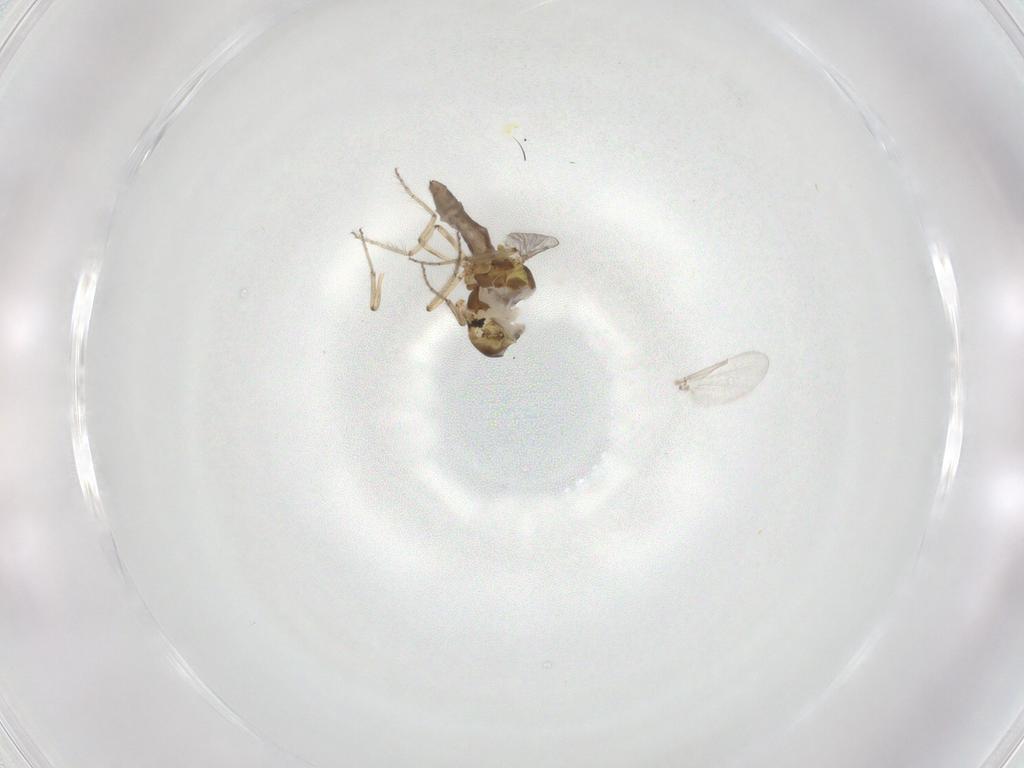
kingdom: Animalia
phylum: Arthropoda
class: Insecta
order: Diptera
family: Ceratopogonidae
